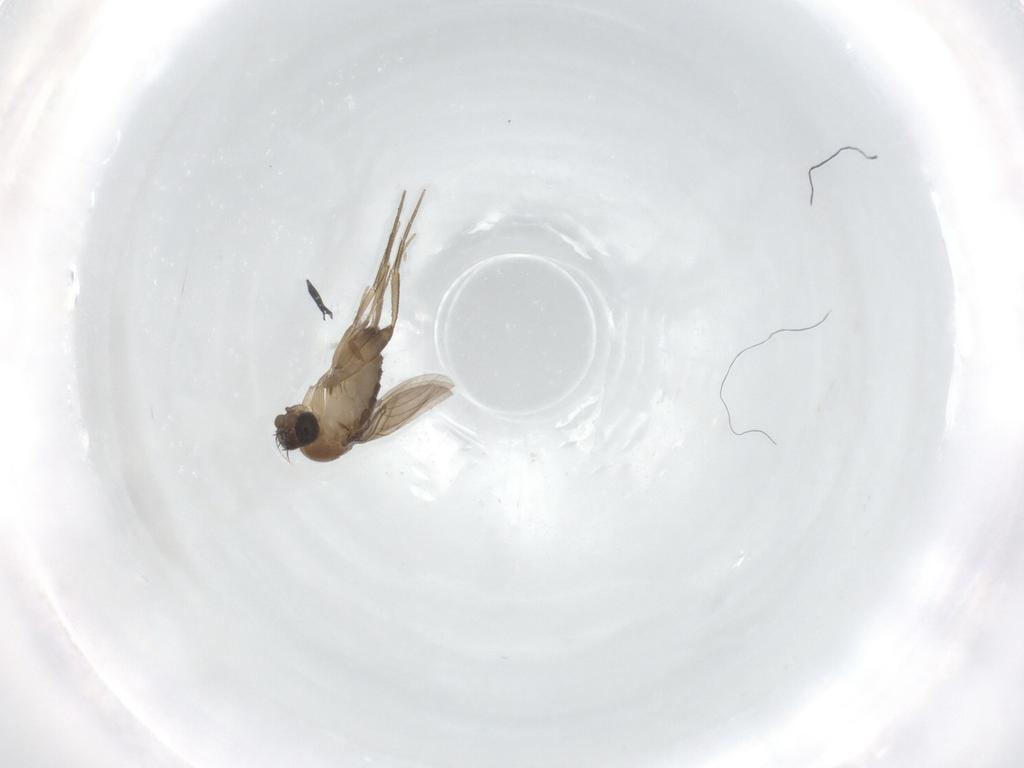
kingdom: Animalia
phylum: Arthropoda
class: Insecta
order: Diptera
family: Phoridae
